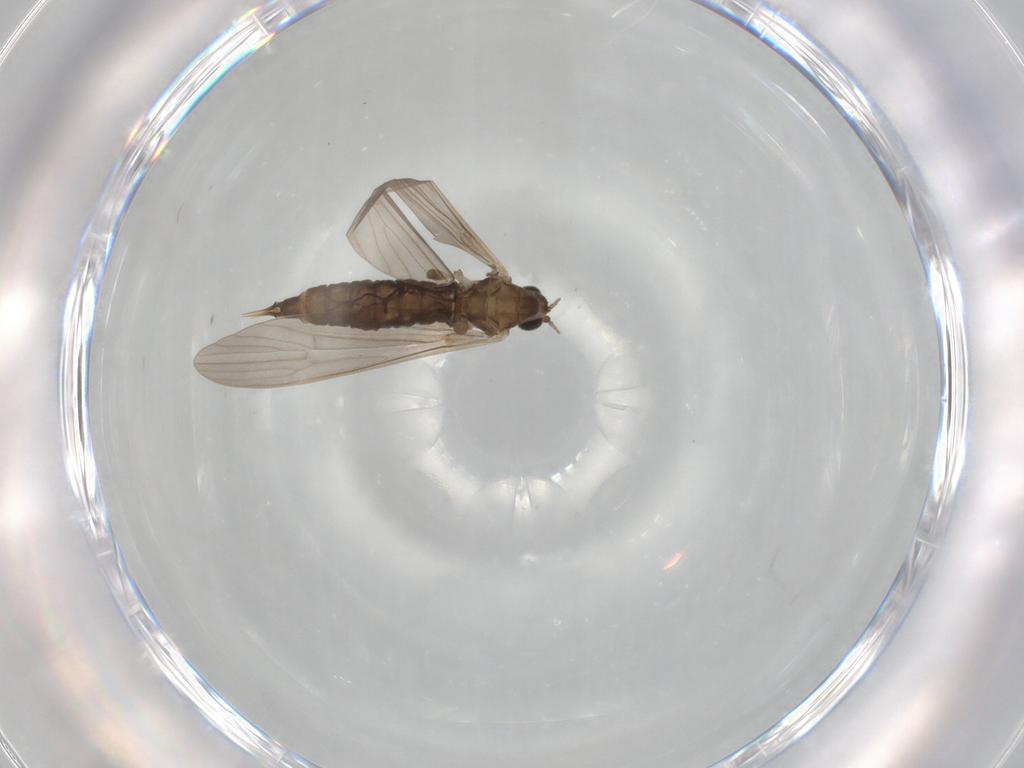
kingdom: Animalia
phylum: Arthropoda
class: Insecta
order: Diptera
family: Limoniidae
